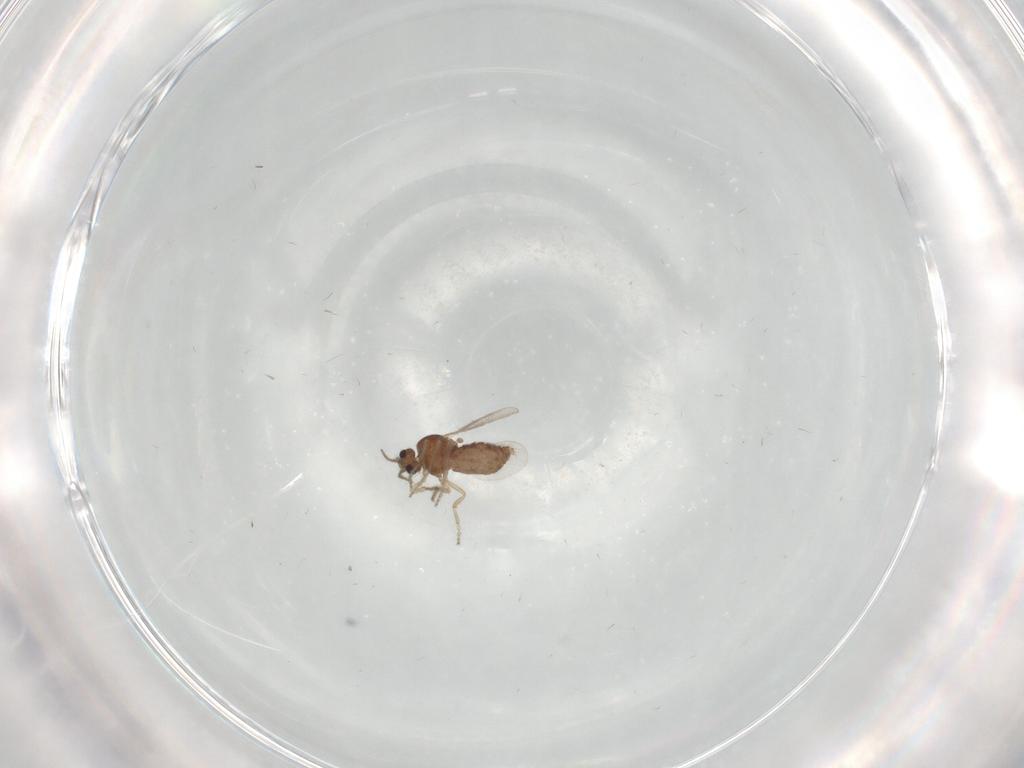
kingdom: Animalia
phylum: Arthropoda
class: Insecta
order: Diptera
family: Ceratopogonidae
